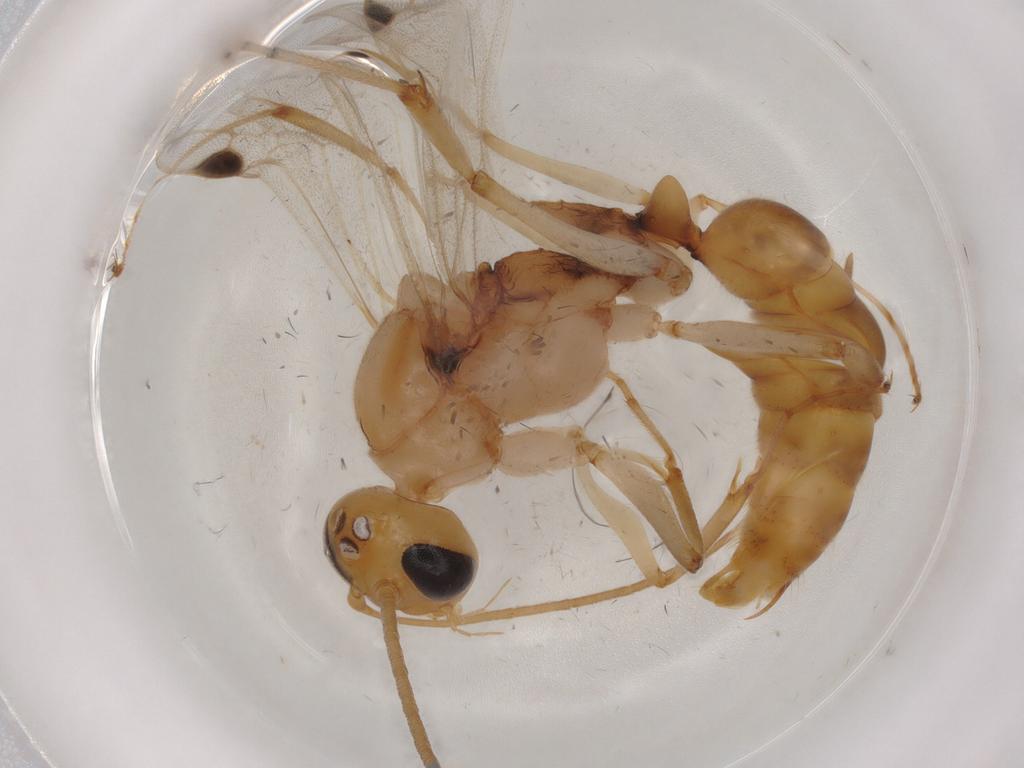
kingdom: Animalia
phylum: Arthropoda
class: Insecta
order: Hymenoptera
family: Formicidae
